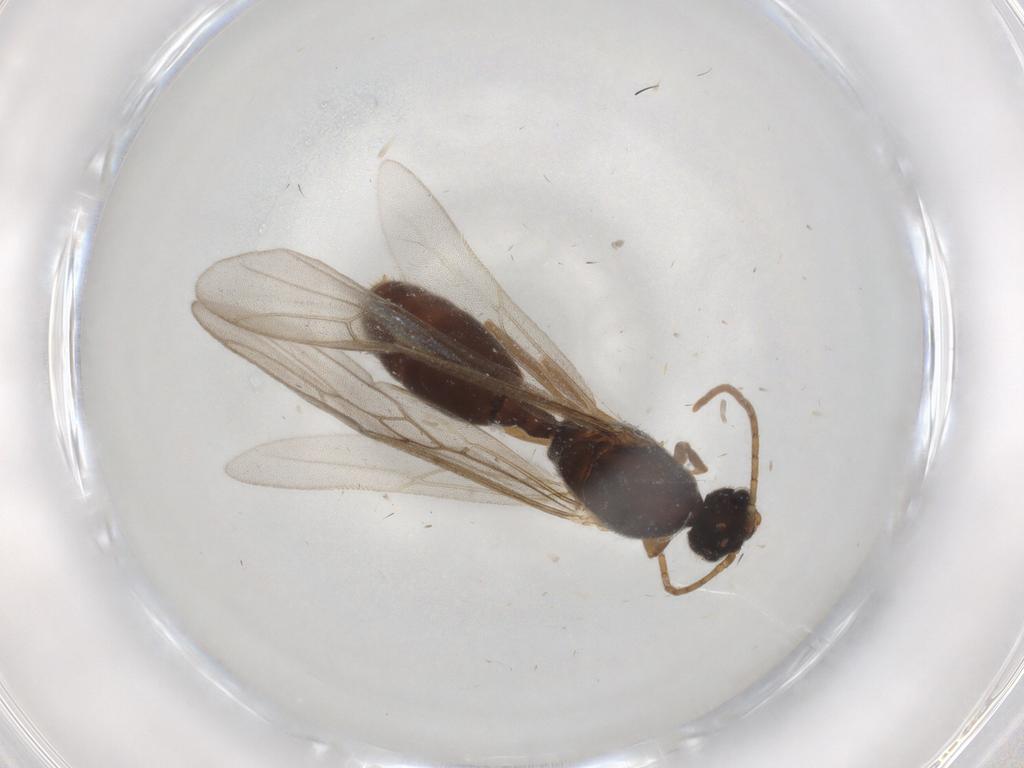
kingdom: Animalia
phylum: Arthropoda
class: Insecta
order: Hymenoptera
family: Formicidae
